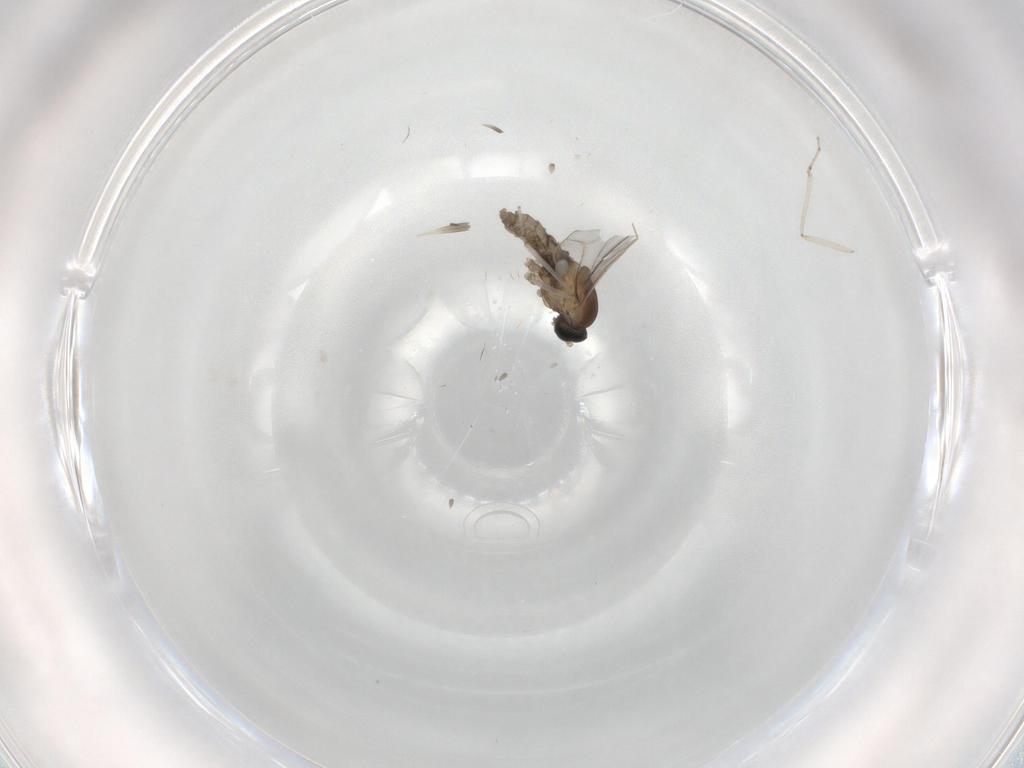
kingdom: Animalia
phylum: Arthropoda
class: Insecta
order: Diptera
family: Cecidomyiidae
